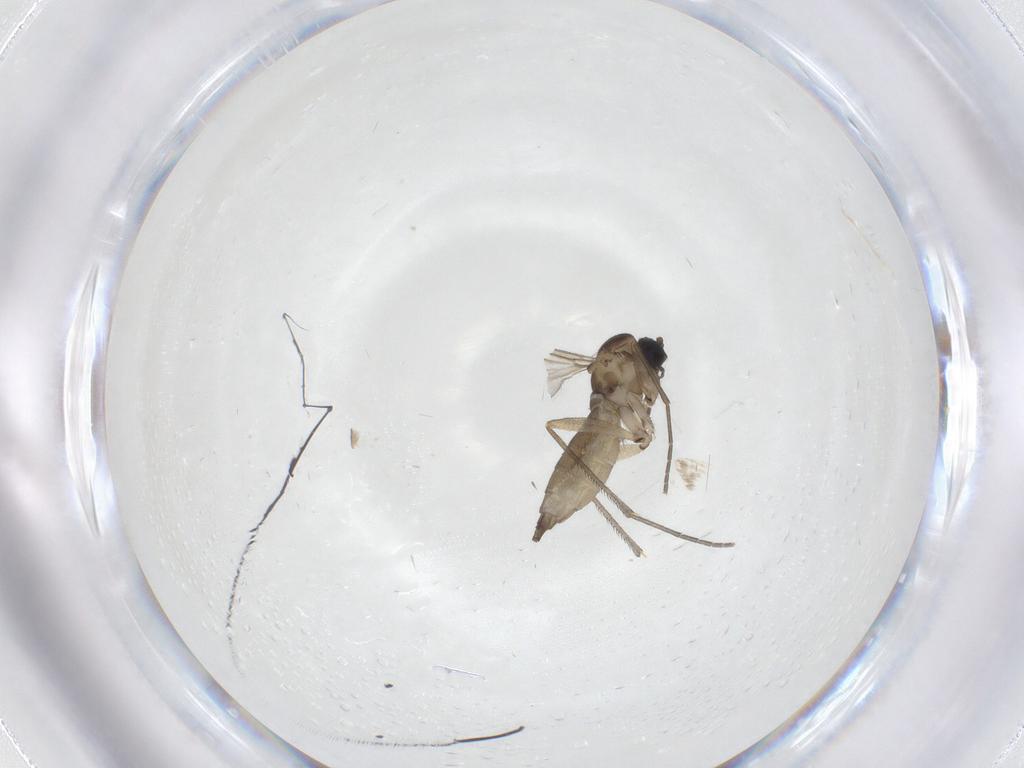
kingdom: Animalia
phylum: Arthropoda
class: Insecta
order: Diptera
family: Sciaridae
